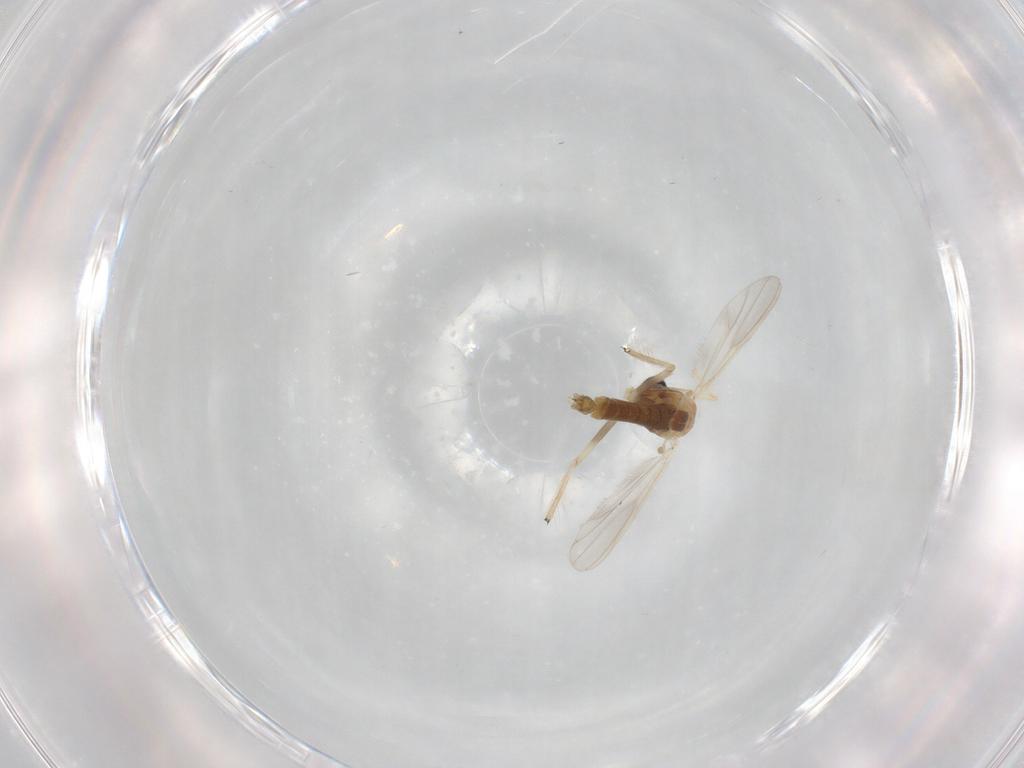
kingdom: Animalia
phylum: Arthropoda
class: Insecta
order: Diptera
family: Chironomidae
